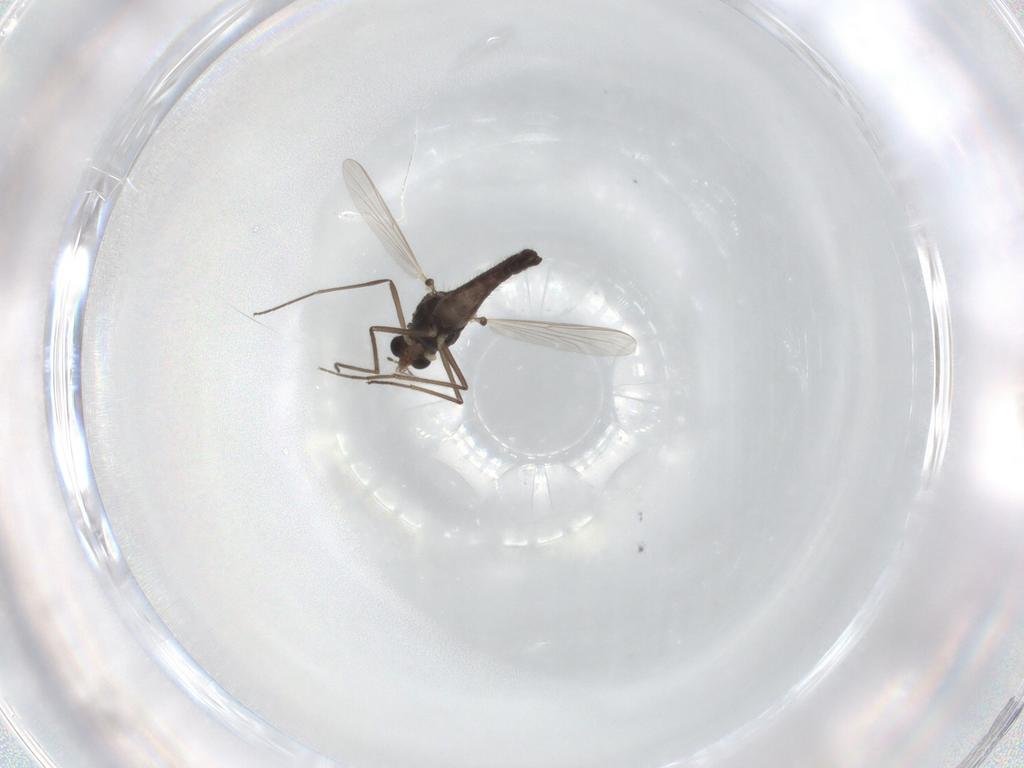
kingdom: Animalia
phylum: Arthropoda
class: Insecta
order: Diptera
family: Chironomidae
